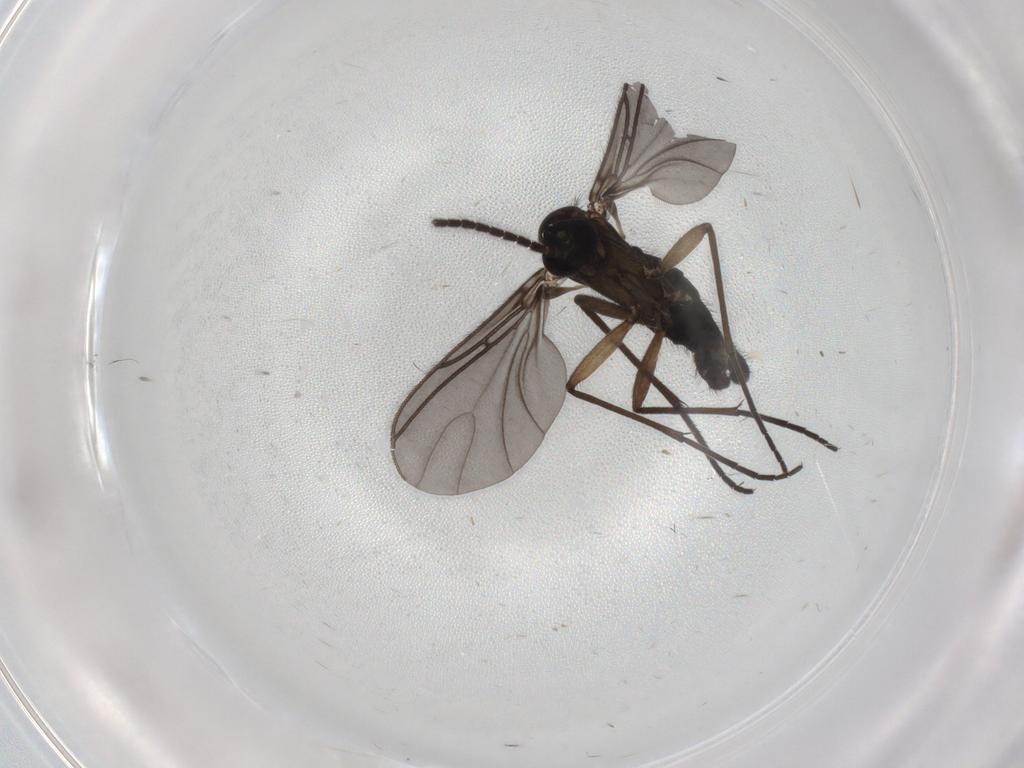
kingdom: Animalia
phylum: Arthropoda
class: Insecta
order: Diptera
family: Sciaridae
